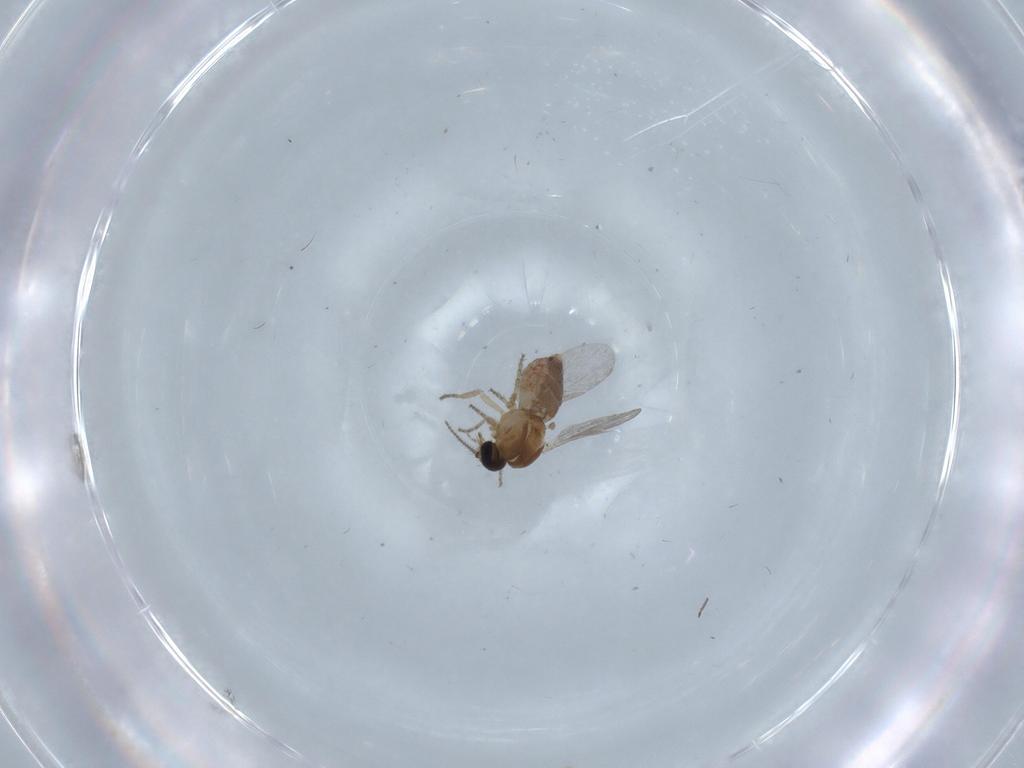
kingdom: Animalia
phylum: Arthropoda
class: Insecta
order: Diptera
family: Ceratopogonidae
